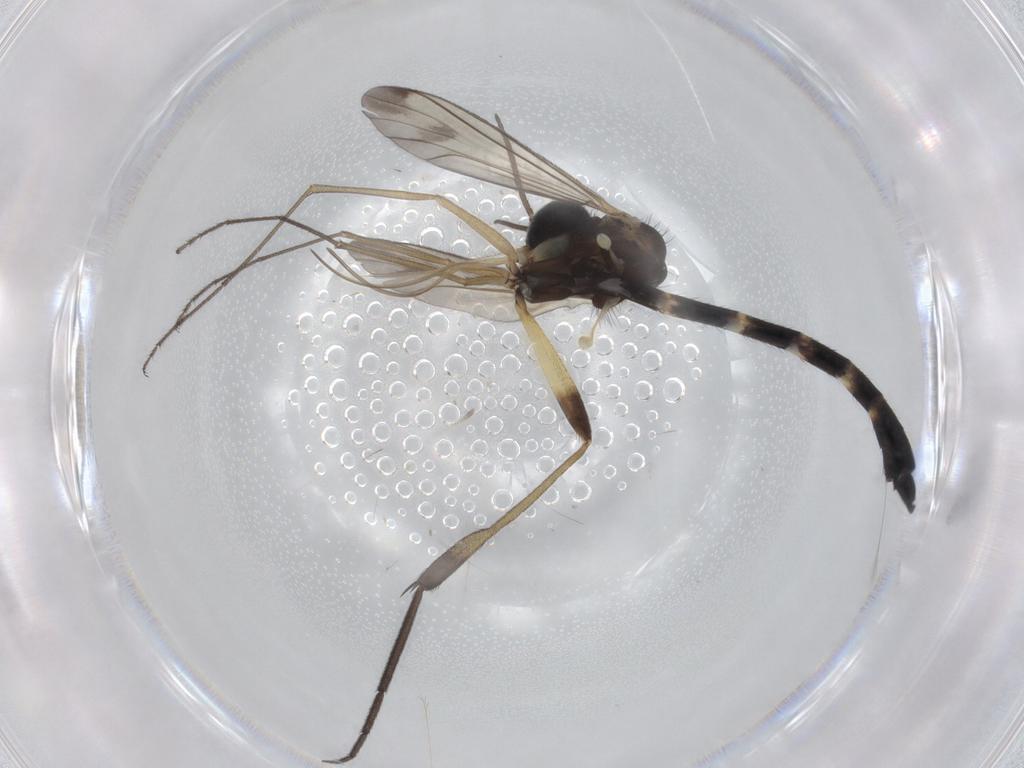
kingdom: Animalia
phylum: Arthropoda
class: Insecta
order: Diptera
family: Keroplatidae
